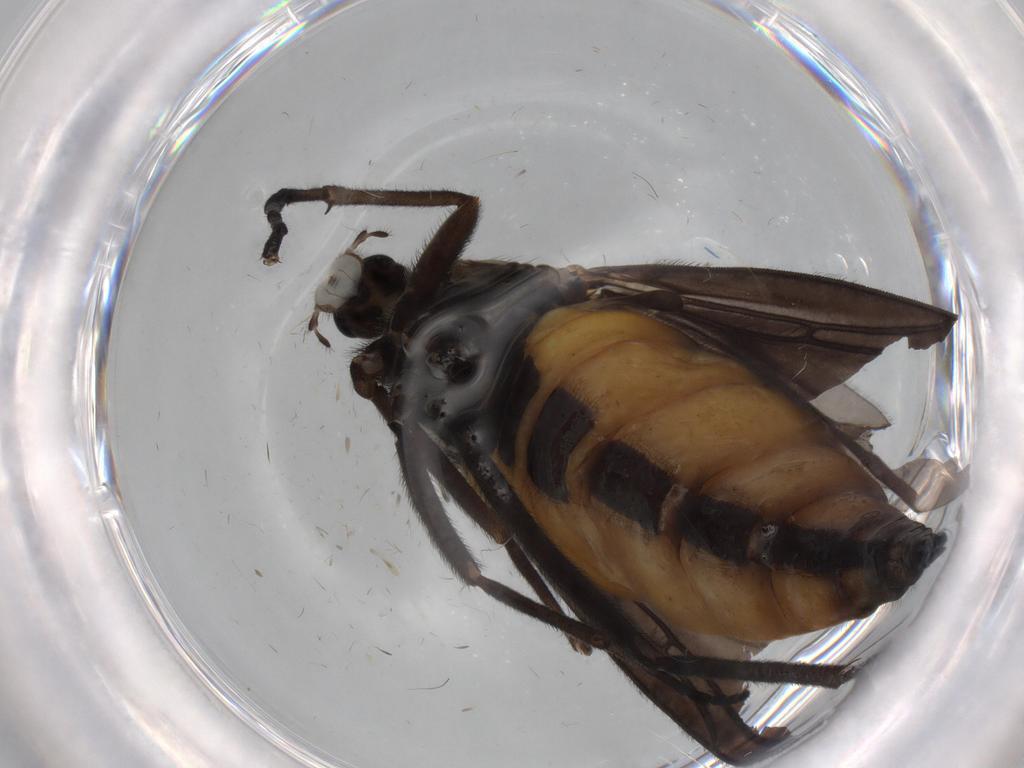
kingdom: Animalia
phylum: Arthropoda
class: Insecta
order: Diptera
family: Sciaridae
